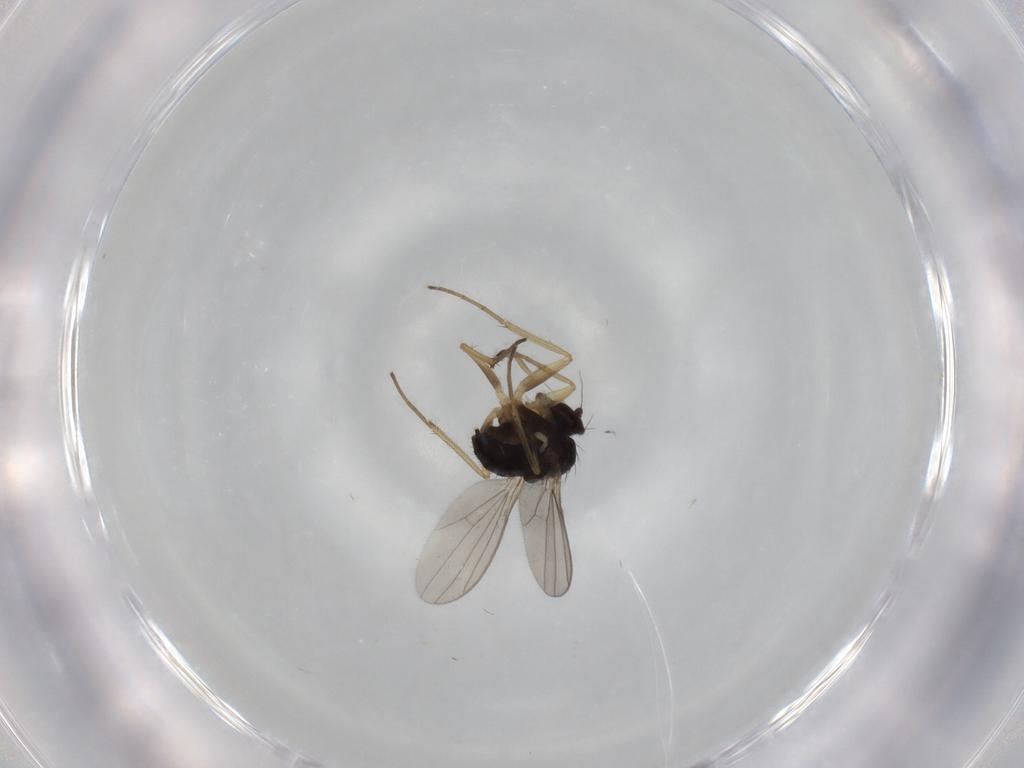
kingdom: Animalia
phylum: Arthropoda
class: Insecta
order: Diptera
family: Dolichopodidae
